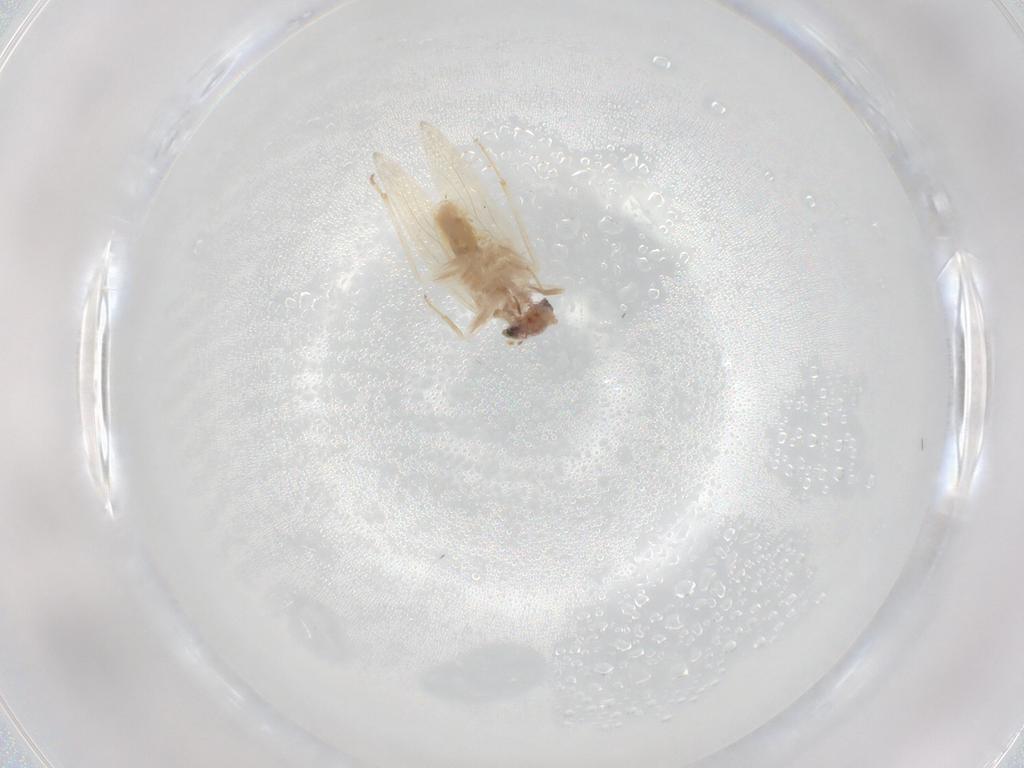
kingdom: Animalia
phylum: Arthropoda
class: Insecta
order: Psocodea
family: Lepidopsocidae
